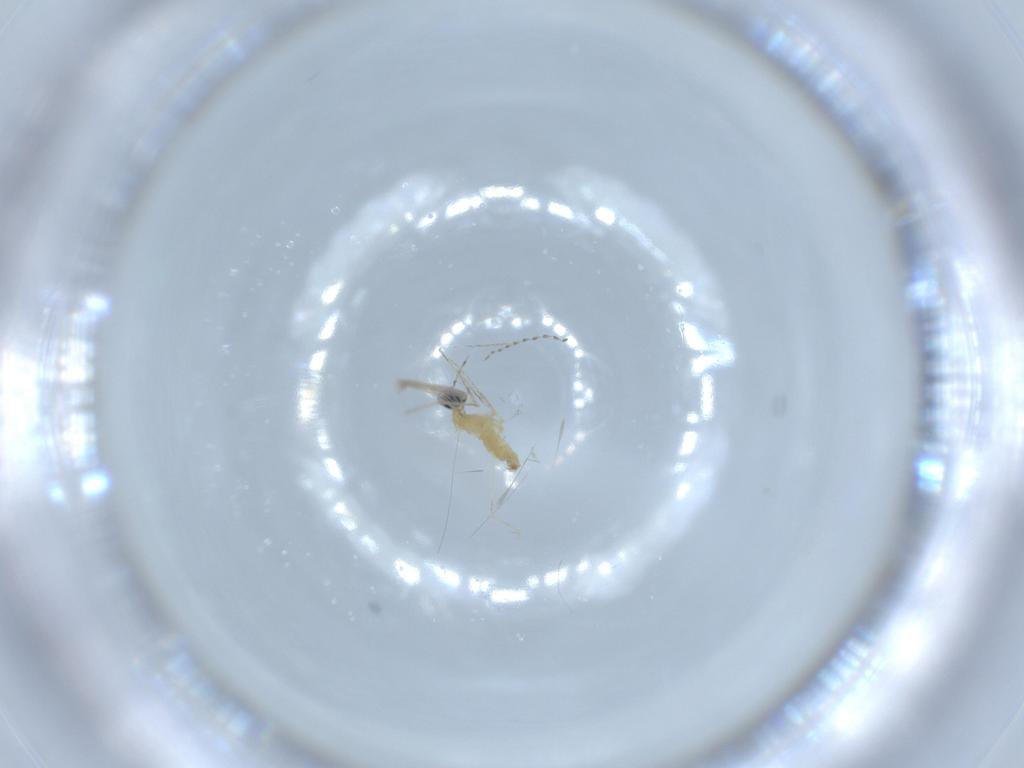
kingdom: Animalia
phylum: Arthropoda
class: Insecta
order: Diptera
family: Cecidomyiidae
